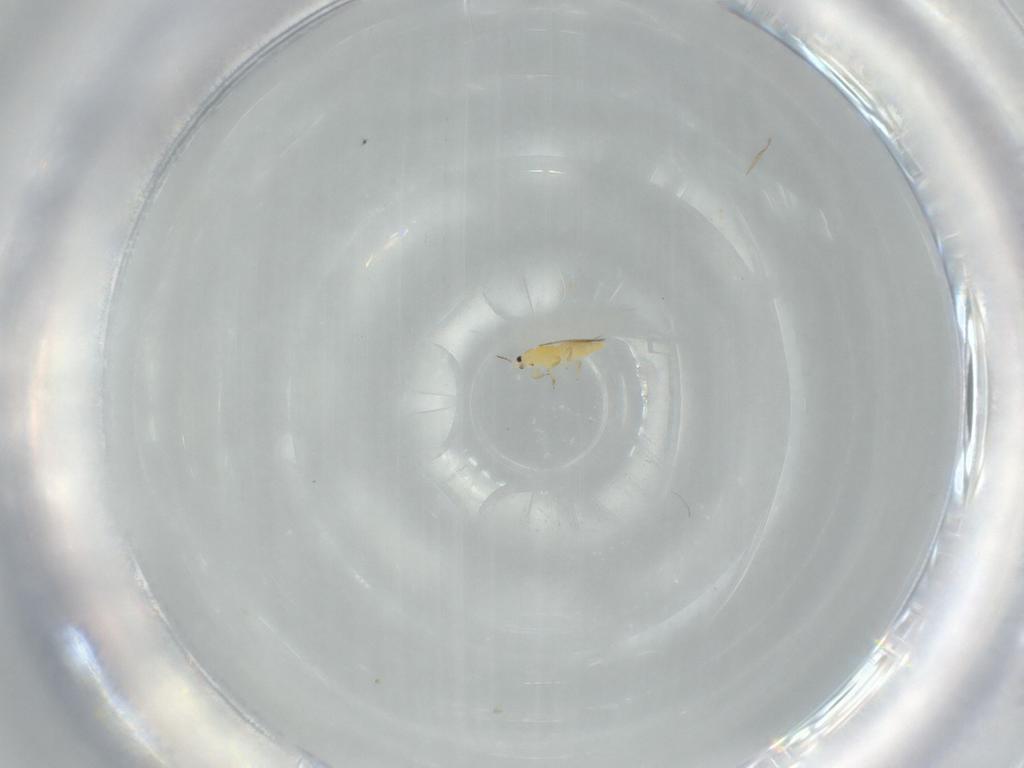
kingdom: Animalia
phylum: Arthropoda
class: Insecta
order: Thysanoptera
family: Thripidae
